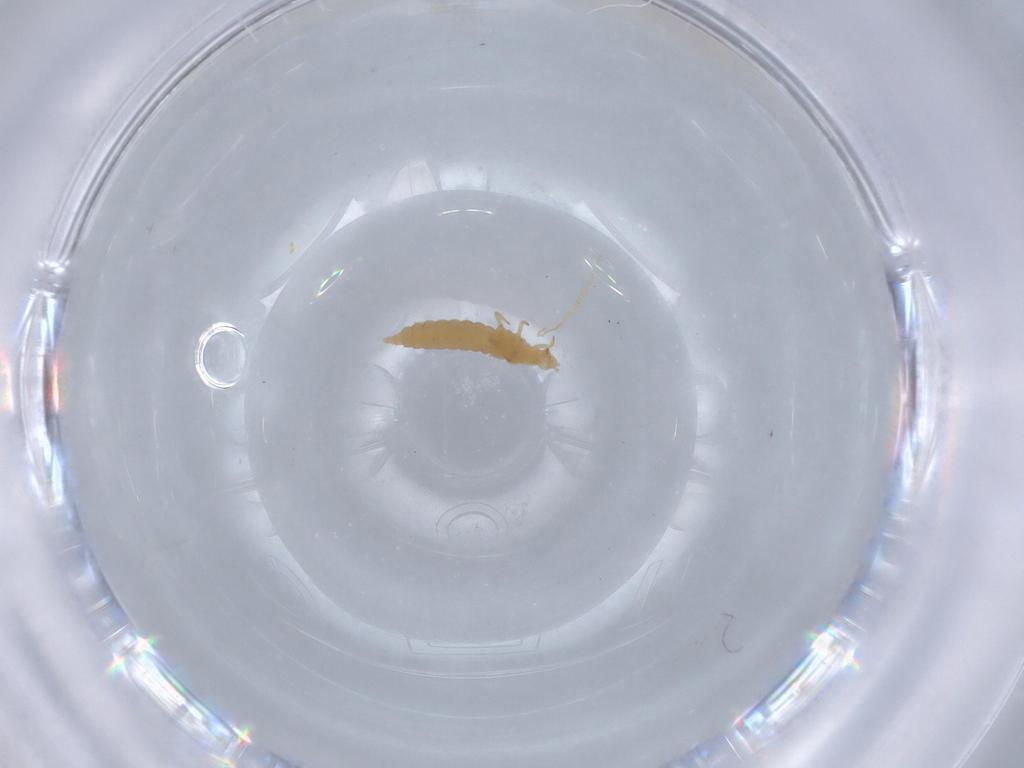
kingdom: Animalia
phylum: Arthropoda
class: Insecta
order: Thysanoptera
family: Thripidae
